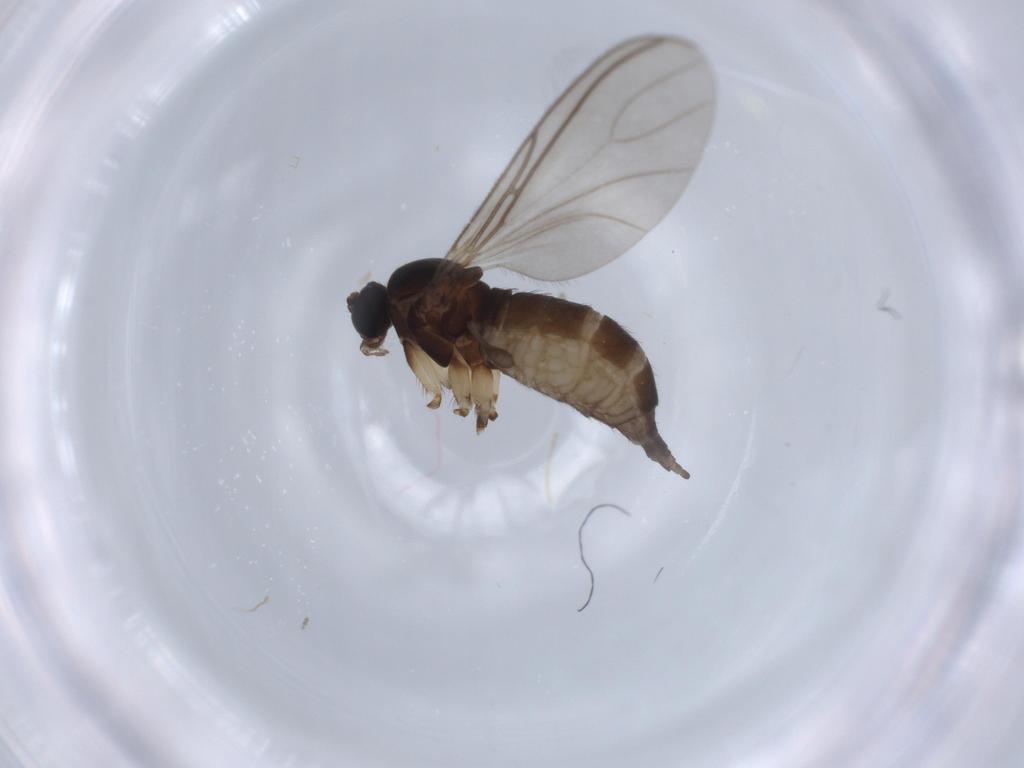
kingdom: Animalia
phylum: Arthropoda
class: Insecta
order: Diptera
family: Sciaridae
